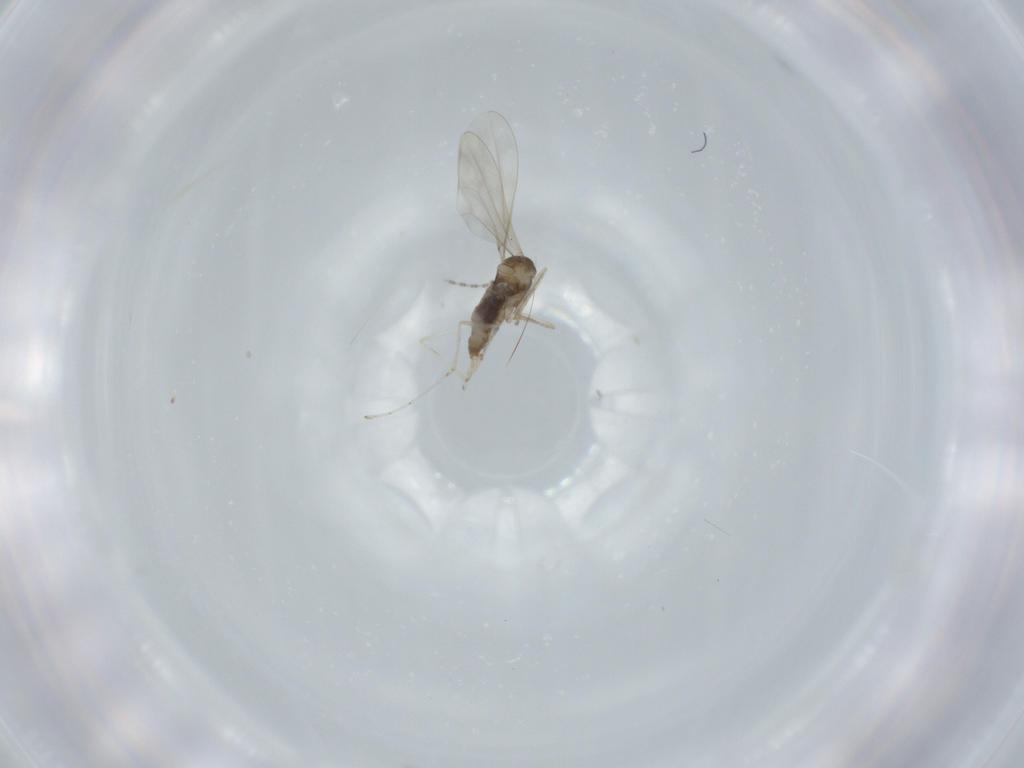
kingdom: Animalia
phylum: Arthropoda
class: Insecta
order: Diptera
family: Cecidomyiidae
